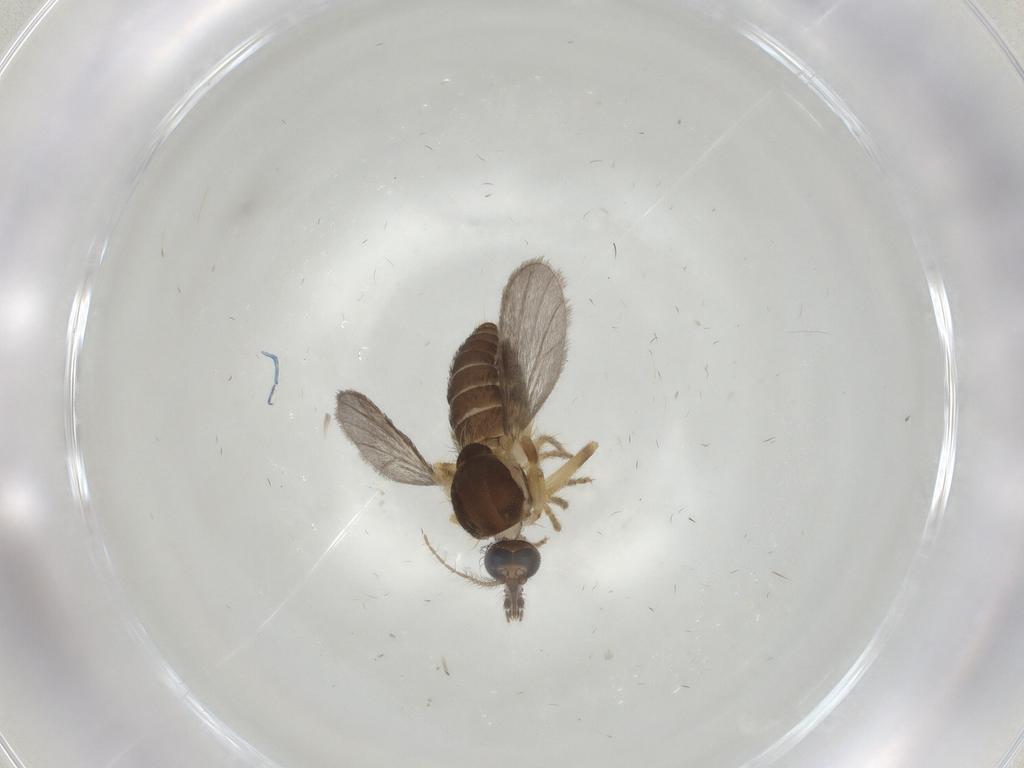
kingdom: Animalia
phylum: Arthropoda
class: Insecta
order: Diptera
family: Ceratopogonidae
